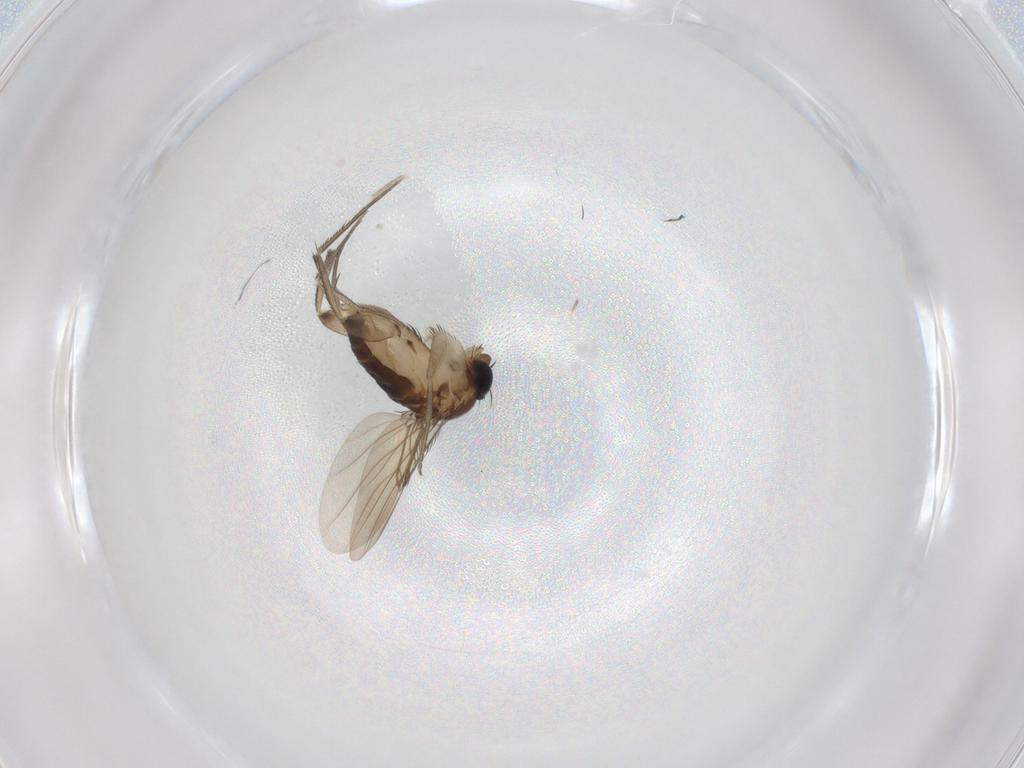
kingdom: Animalia
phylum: Arthropoda
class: Insecta
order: Diptera
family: Phoridae
